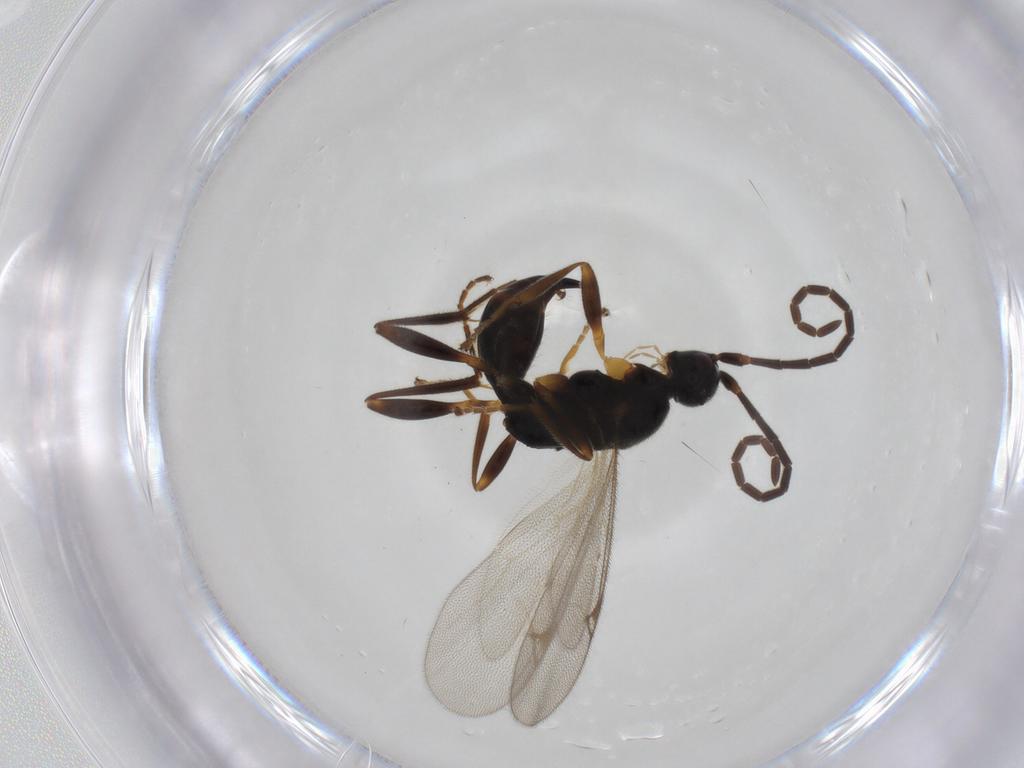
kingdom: Animalia
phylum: Arthropoda
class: Insecta
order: Hymenoptera
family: Proctotrupidae
